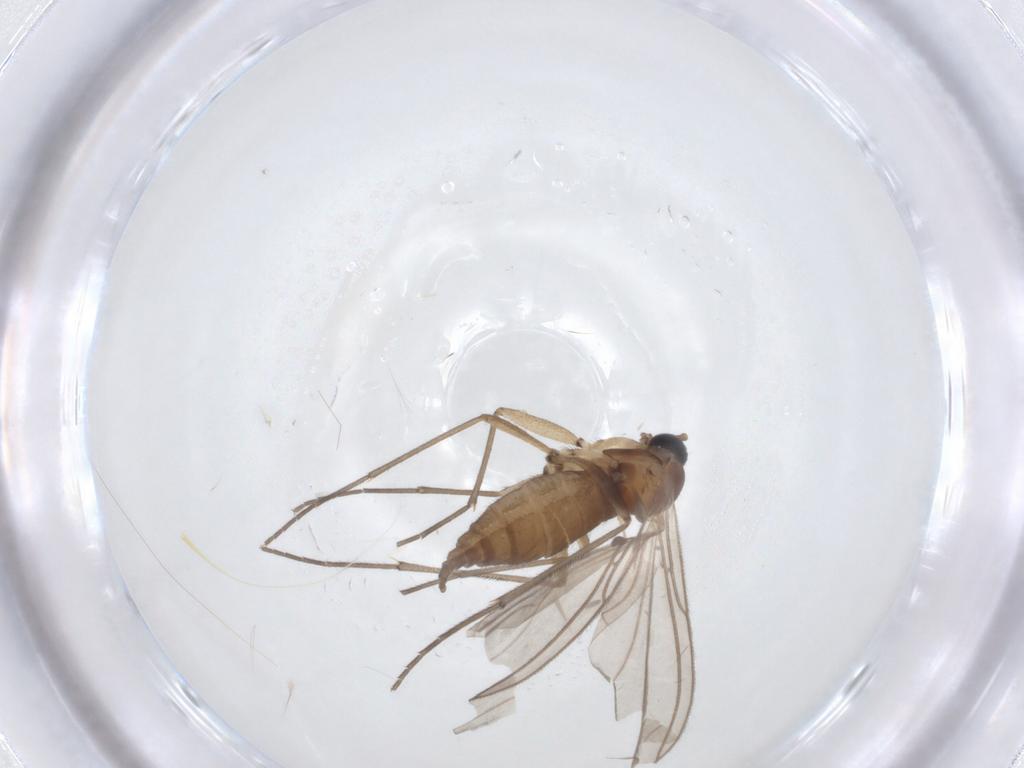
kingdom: Animalia
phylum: Arthropoda
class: Insecta
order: Diptera
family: Sciaridae
